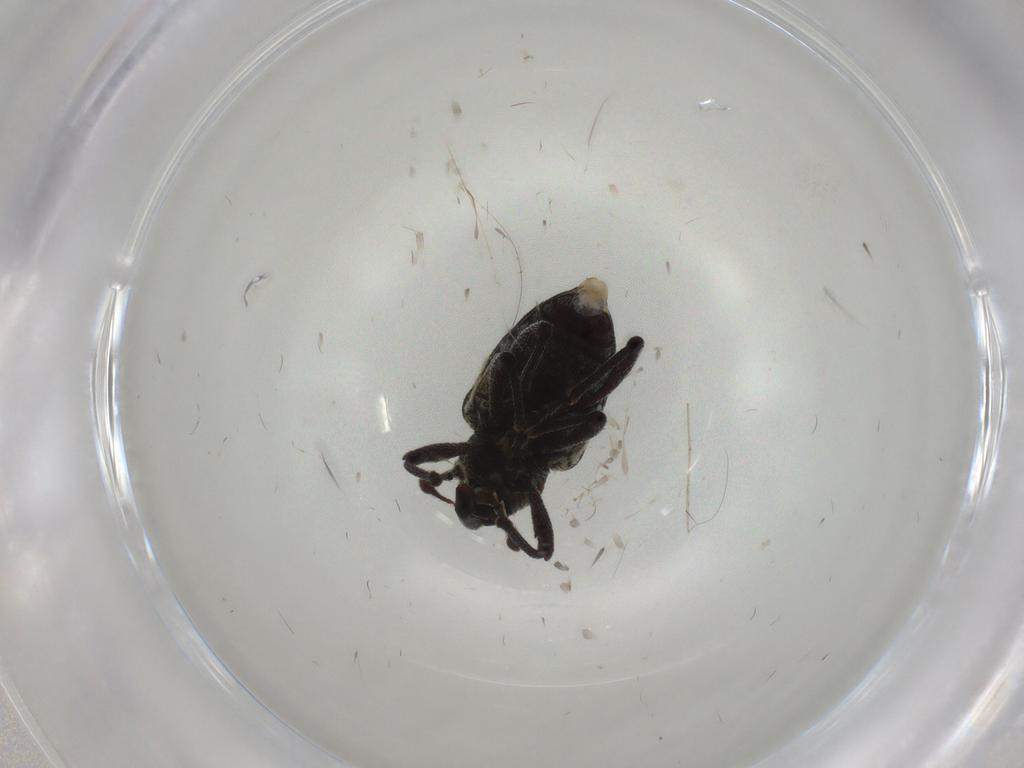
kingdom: Animalia
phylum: Arthropoda
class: Insecta
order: Coleoptera
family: Curculionidae
